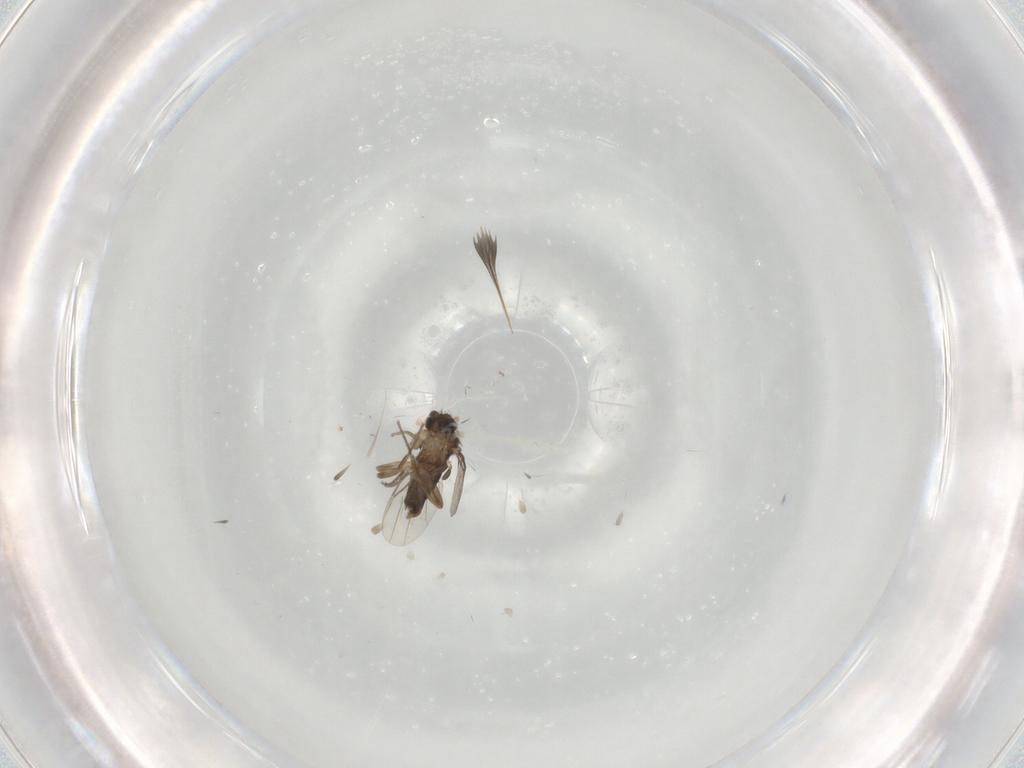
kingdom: Animalia
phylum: Arthropoda
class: Insecta
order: Diptera
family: Phoridae
